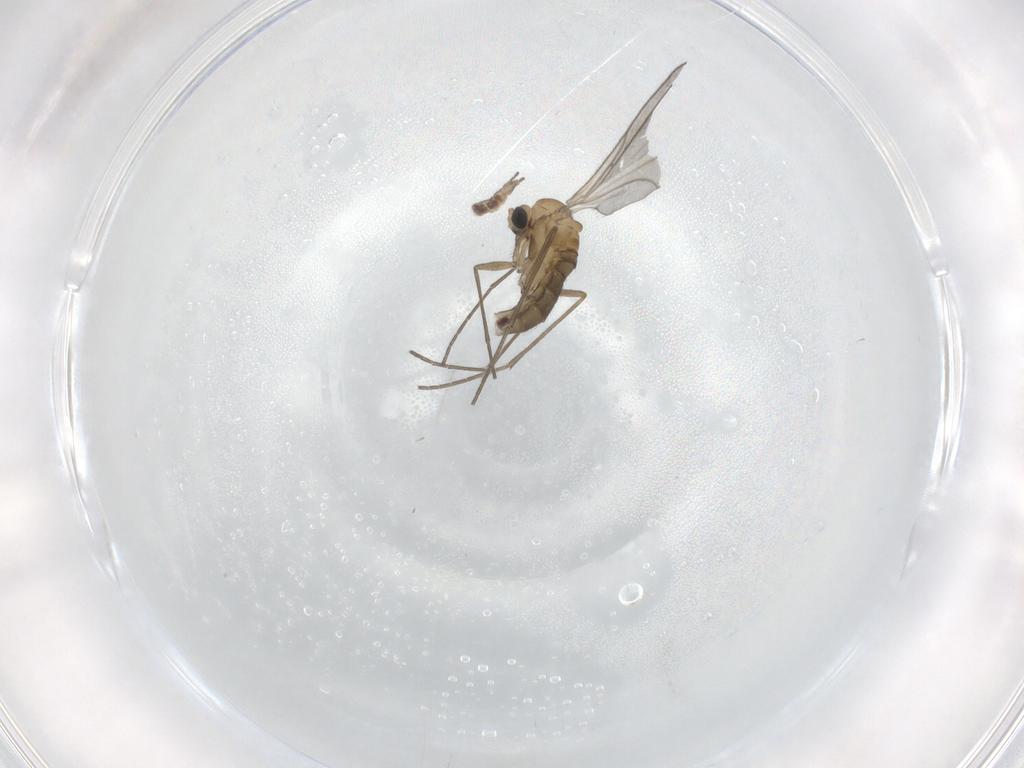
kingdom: Animalia
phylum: Arthropoda
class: Insecta
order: Diptera
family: Sciaridae
